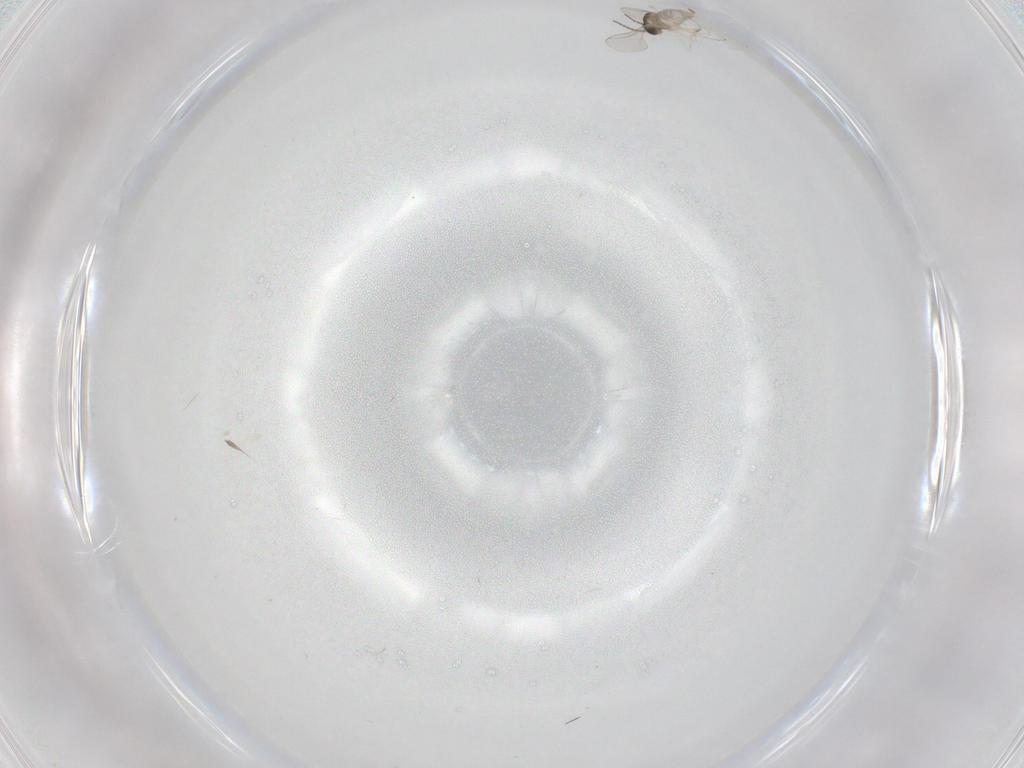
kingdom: Animalia
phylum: Arthropoda
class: Insecta
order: Diptera
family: Cecidomyiidae
